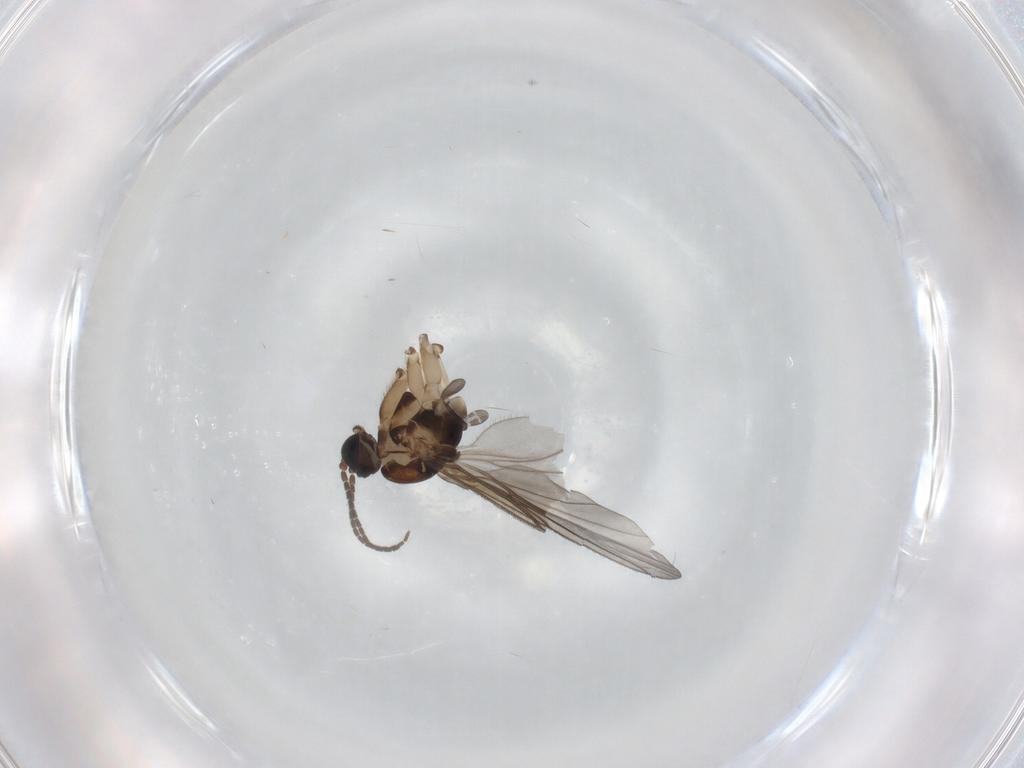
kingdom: Animalia
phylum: Arthropoda
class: Insecta
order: Diptera
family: Sciaridae
